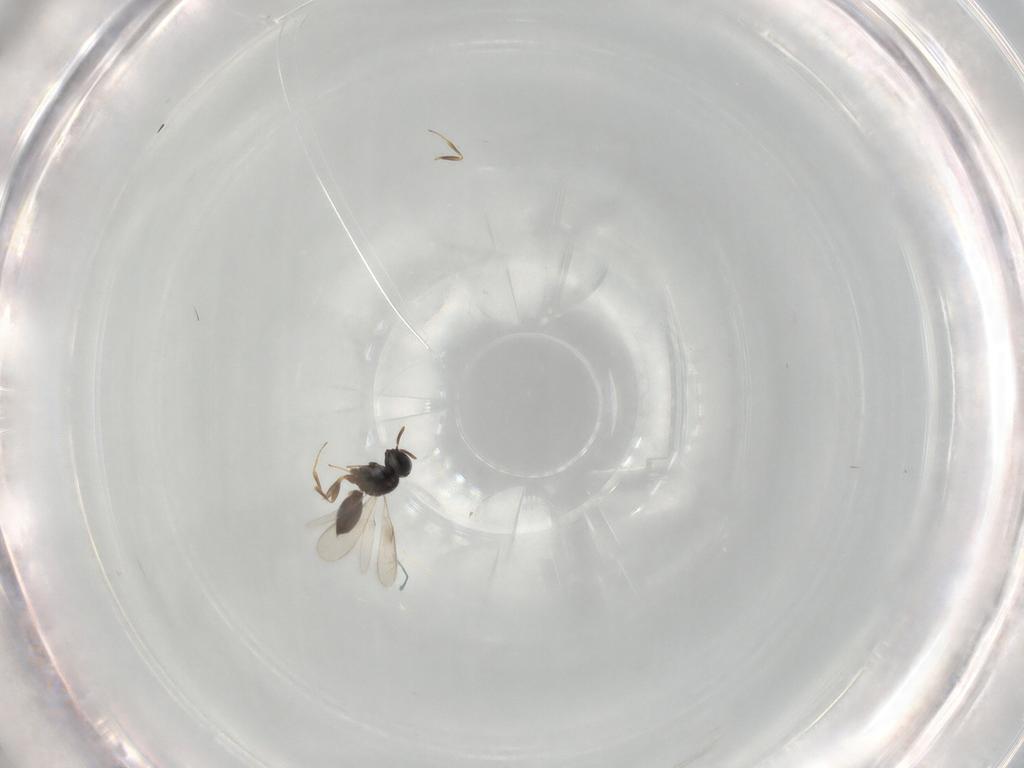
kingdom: Animalia
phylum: Arthropoda
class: Insecta
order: Hymenoptera
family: Scelionidae
